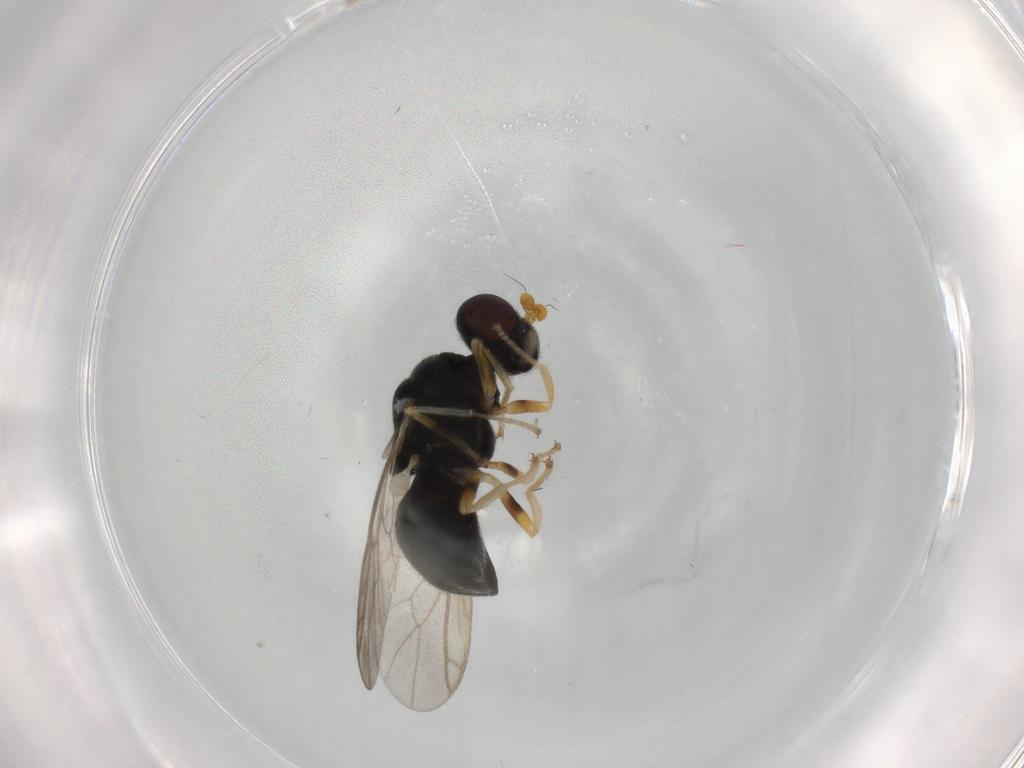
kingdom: Animalia
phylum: Arthropoda
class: Insecta
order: Diptera
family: Stratiomyidae
